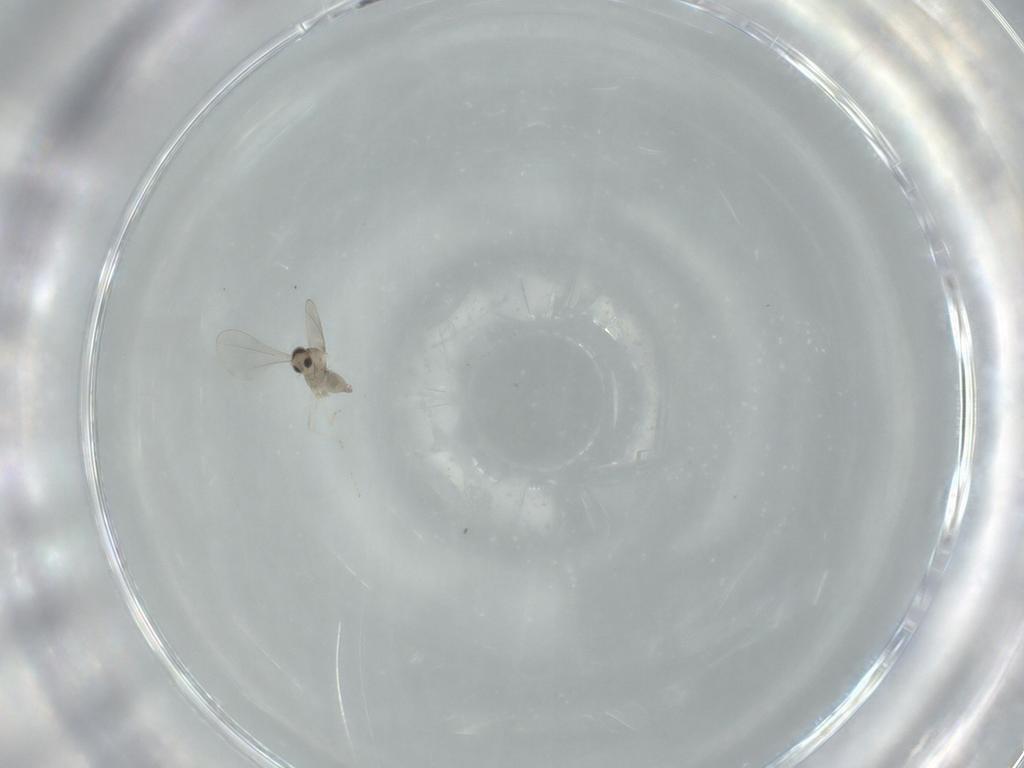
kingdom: Animalia
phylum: Arthropoda
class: Insecta
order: Diptera
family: Cecidomyiidae
